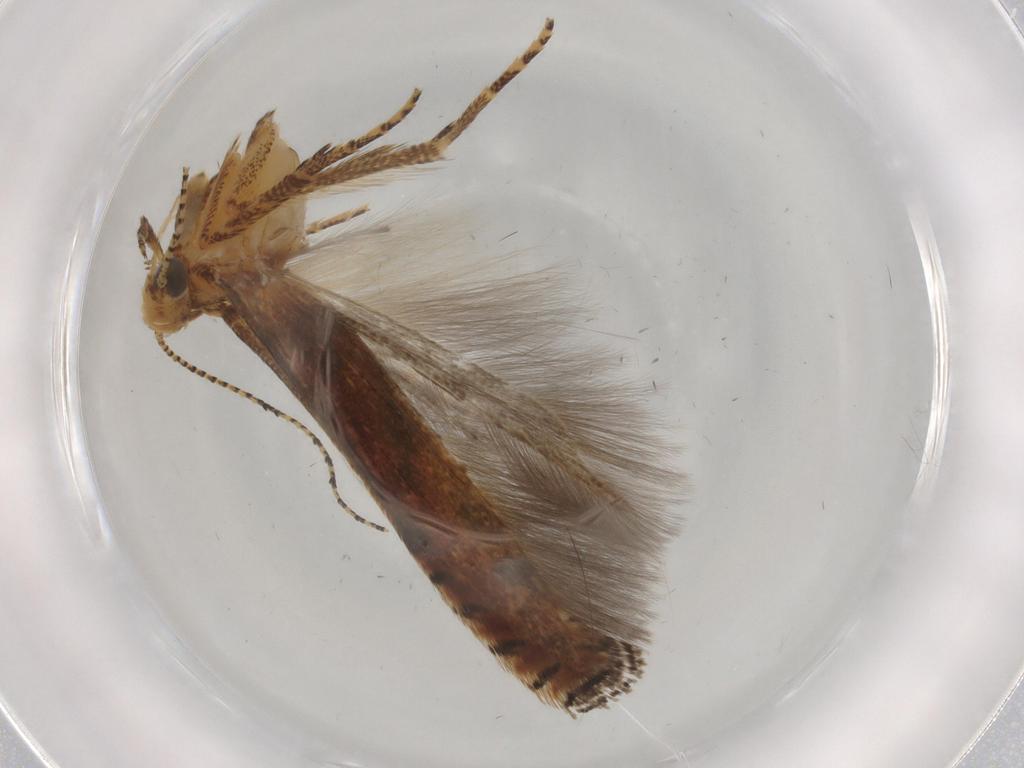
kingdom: Animalia
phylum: Arthropoda
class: Insecta
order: Lepidoptera
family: Gelechiidae
